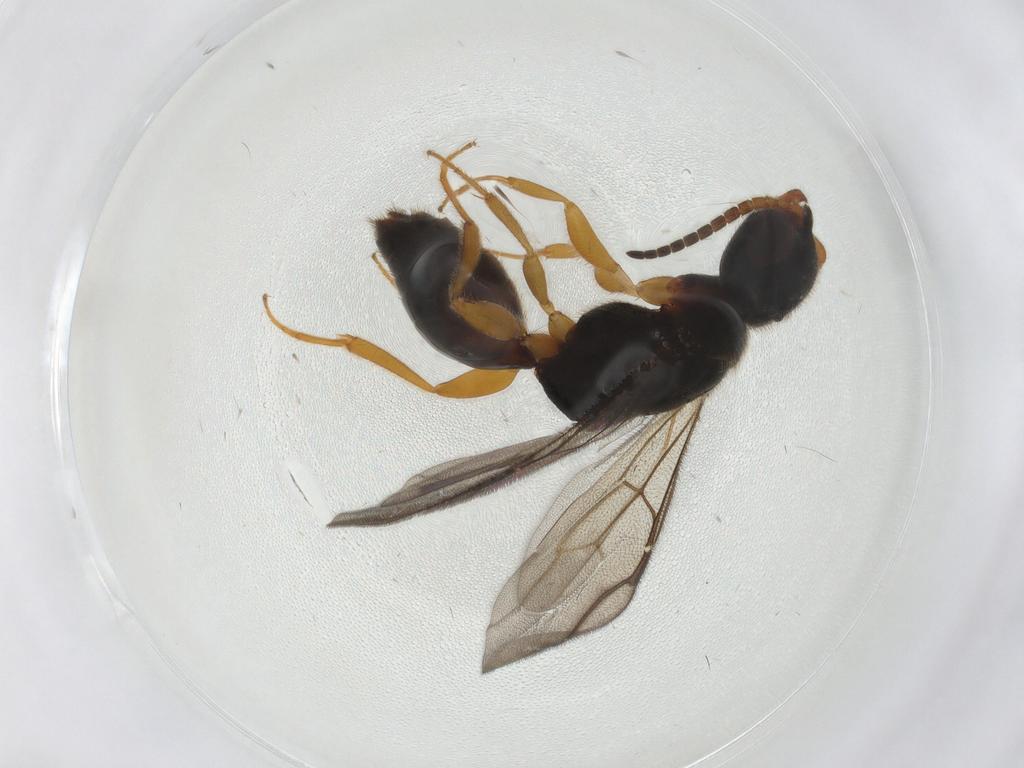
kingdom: Animalia
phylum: Arthropoda
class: Insecta
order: Hymenoptera
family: Bethylidae
